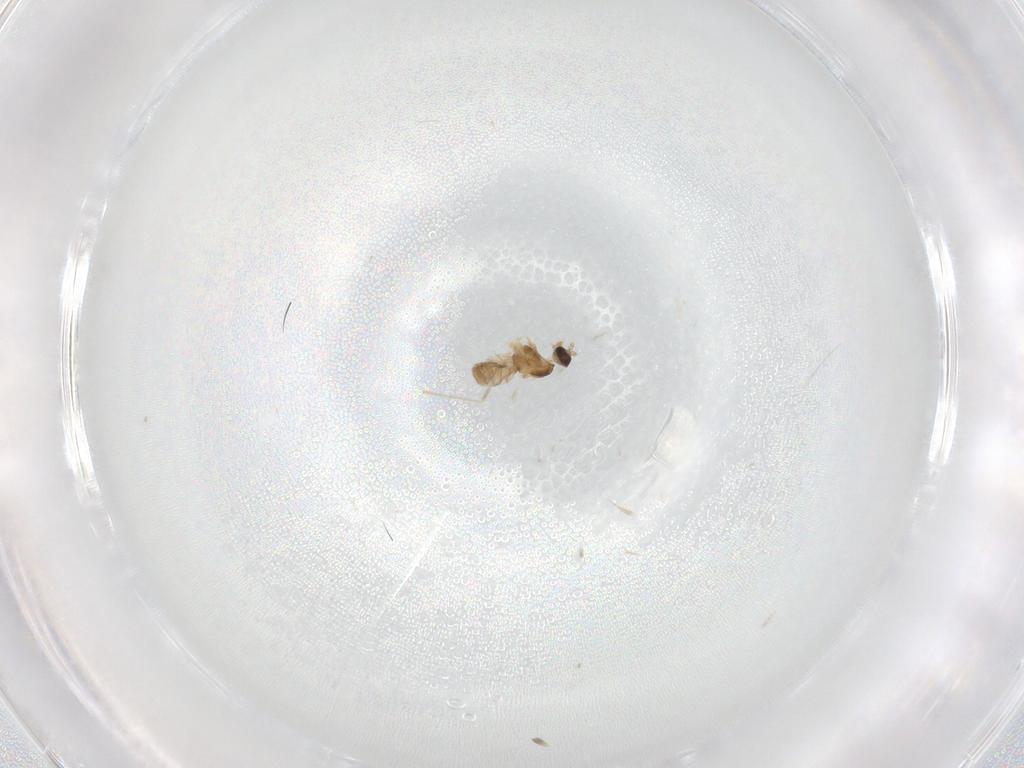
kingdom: Animalia
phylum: Arthropoda
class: Insecta
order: Diptera
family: Cecidomyiidae
